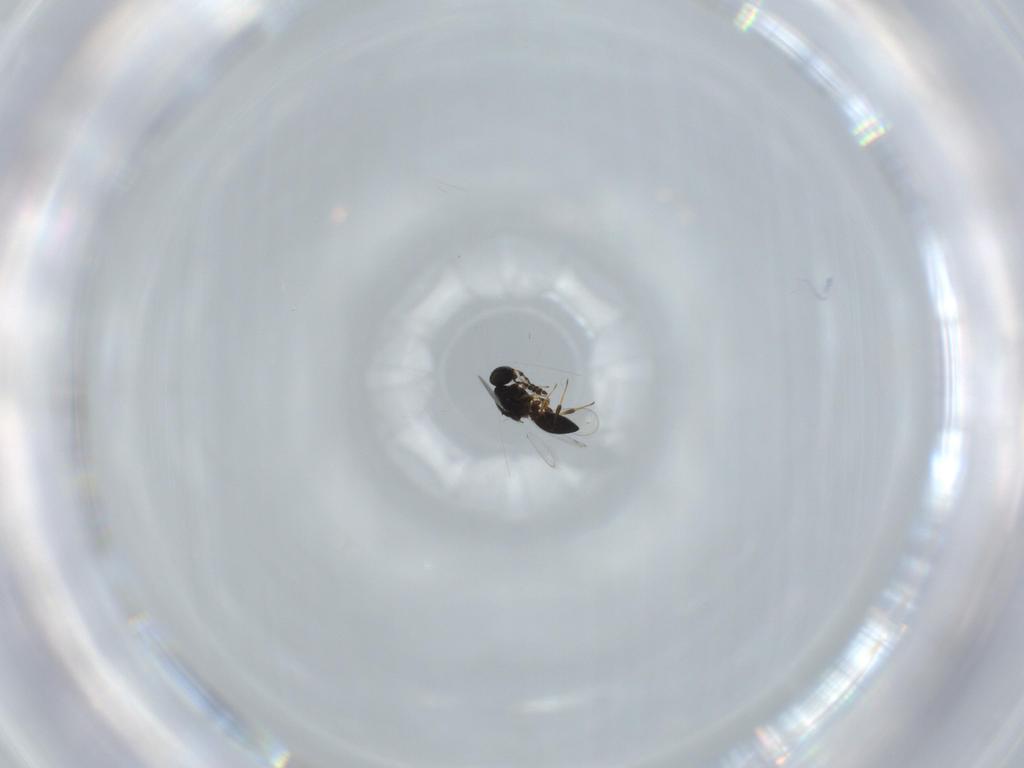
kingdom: Animalia
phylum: Arthropoda
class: Insecta
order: Hymenoptera
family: Platygastridae
